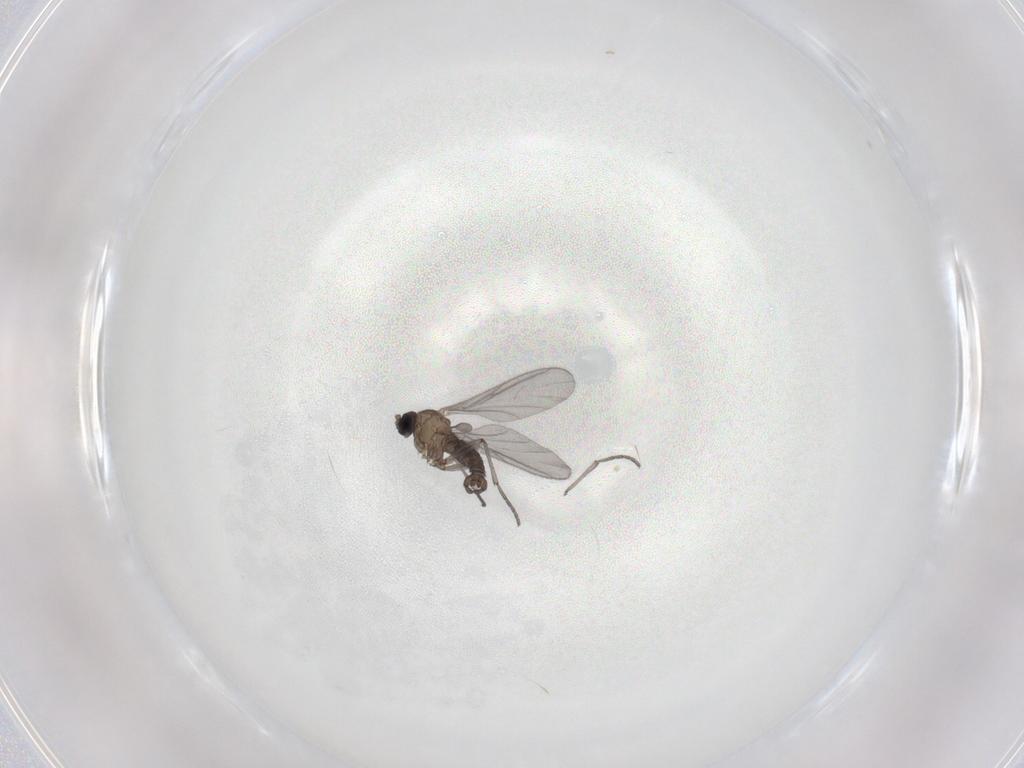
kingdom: Animalia
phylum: Arthropoda
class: Insecta
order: Diptera
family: Sciaridae
